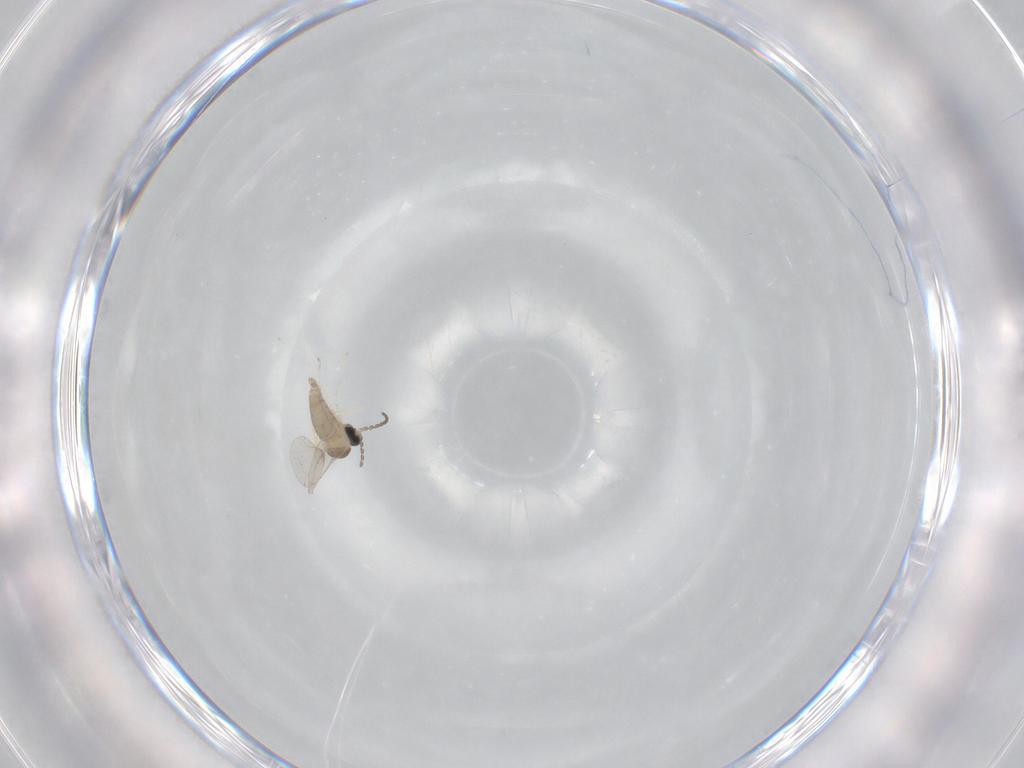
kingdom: Animalia
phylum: Arthropoda
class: Insecta
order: Diptera
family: Cecidomyiidae
